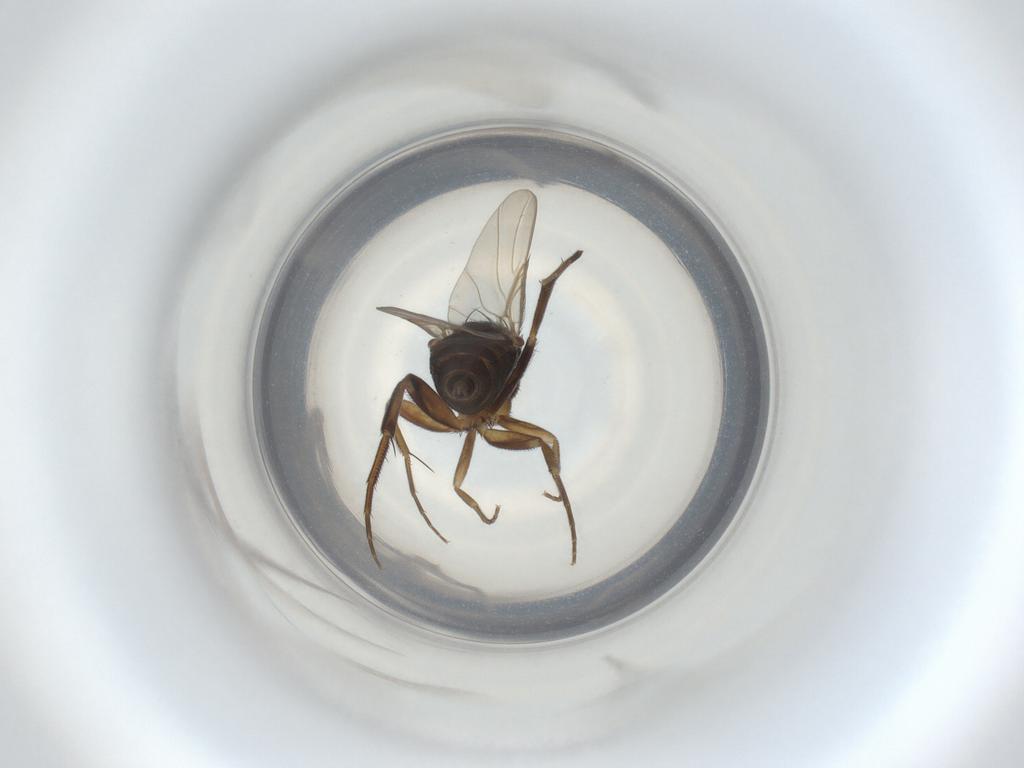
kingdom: Animalia
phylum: Arthropoda
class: Insecta
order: Diptera
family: Phoridae
